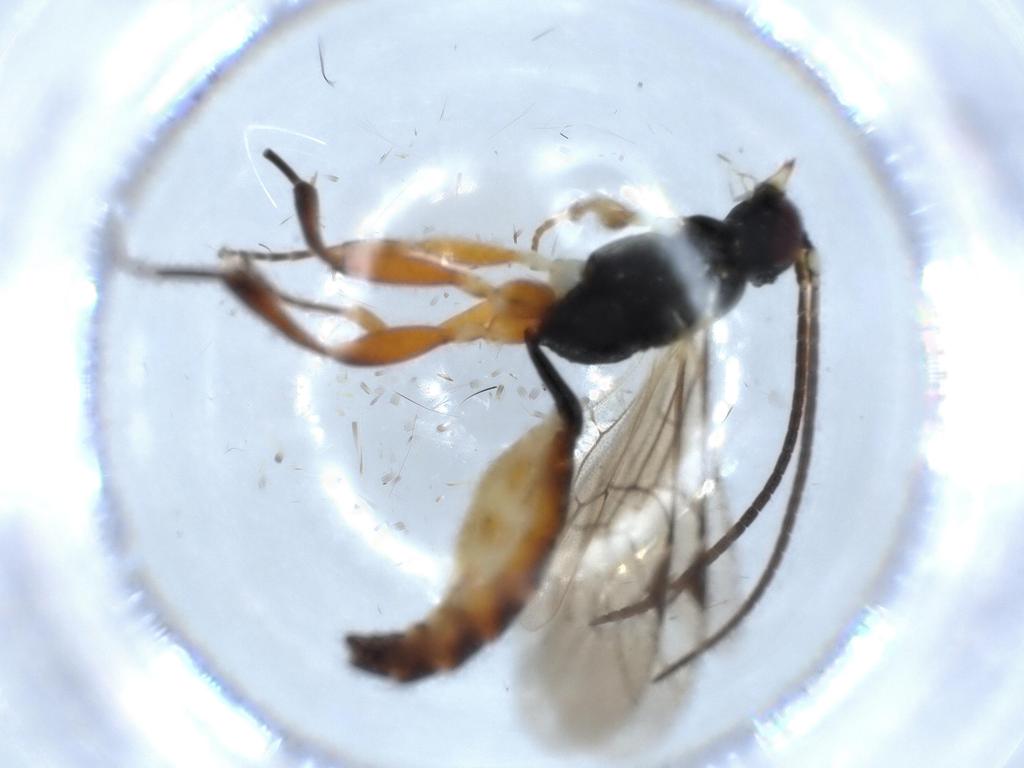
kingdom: Animalia
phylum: Arthropoda
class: Insecta
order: Hymenoptera
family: Ichneumonidae
